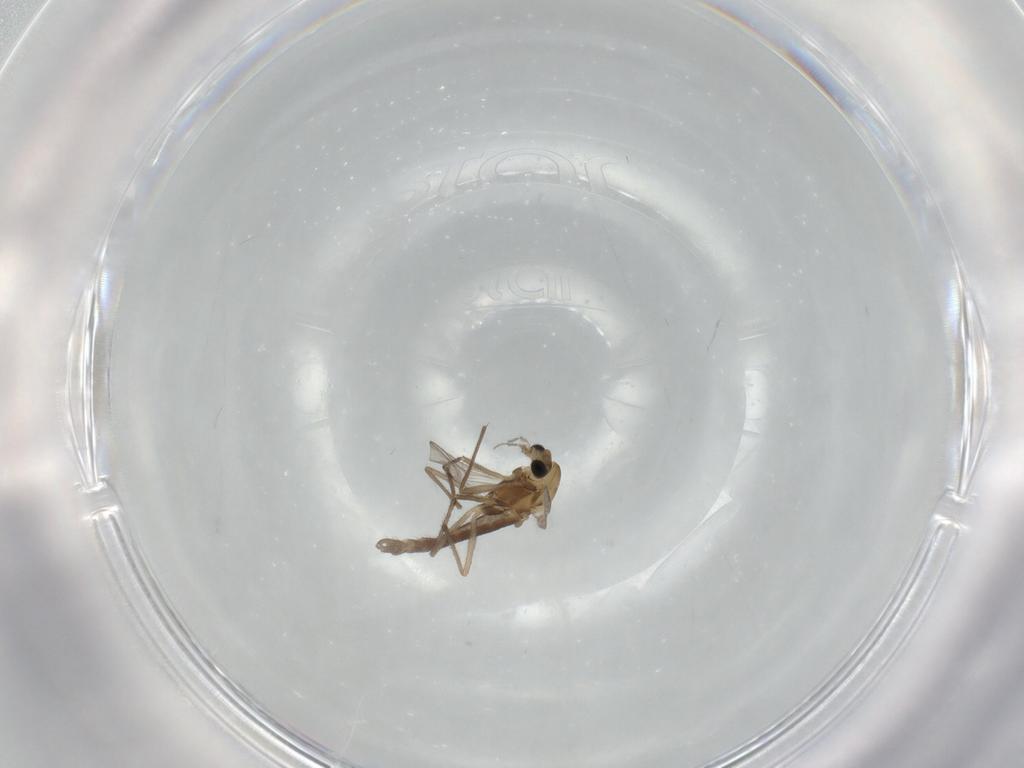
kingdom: Animalia
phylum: Arthropoda
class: Insecta
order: Diptera
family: Chironomidae
